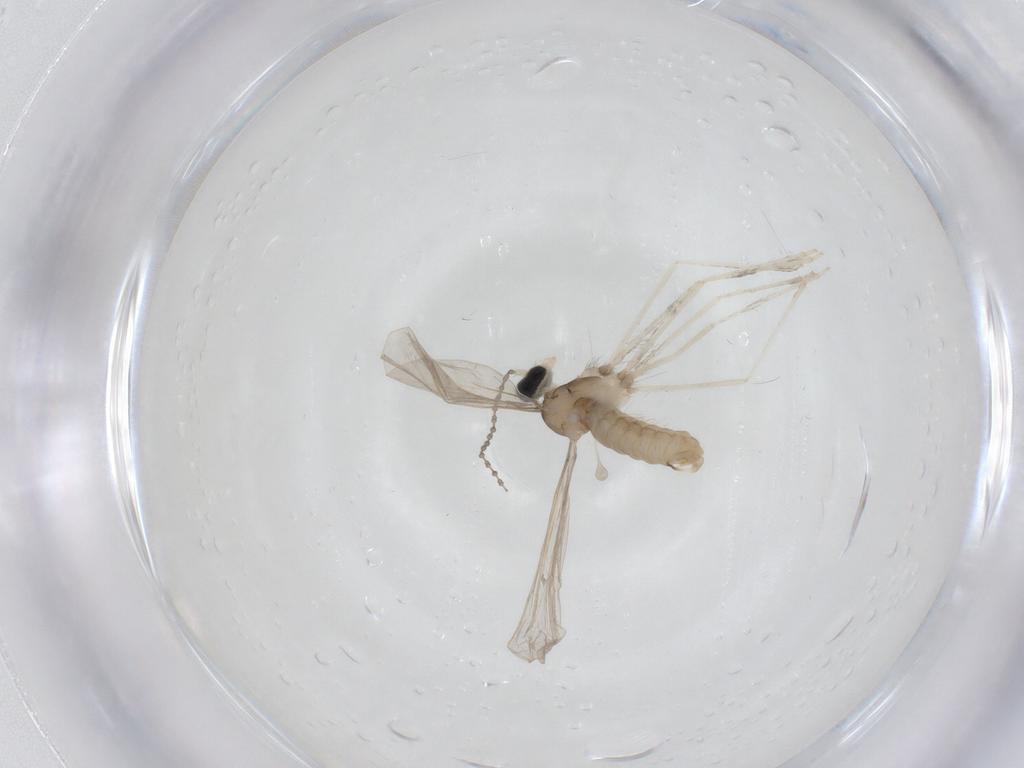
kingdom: Animalia
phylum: Arthropoda
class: Insecta
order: Diptera
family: Cecidomyiidae
